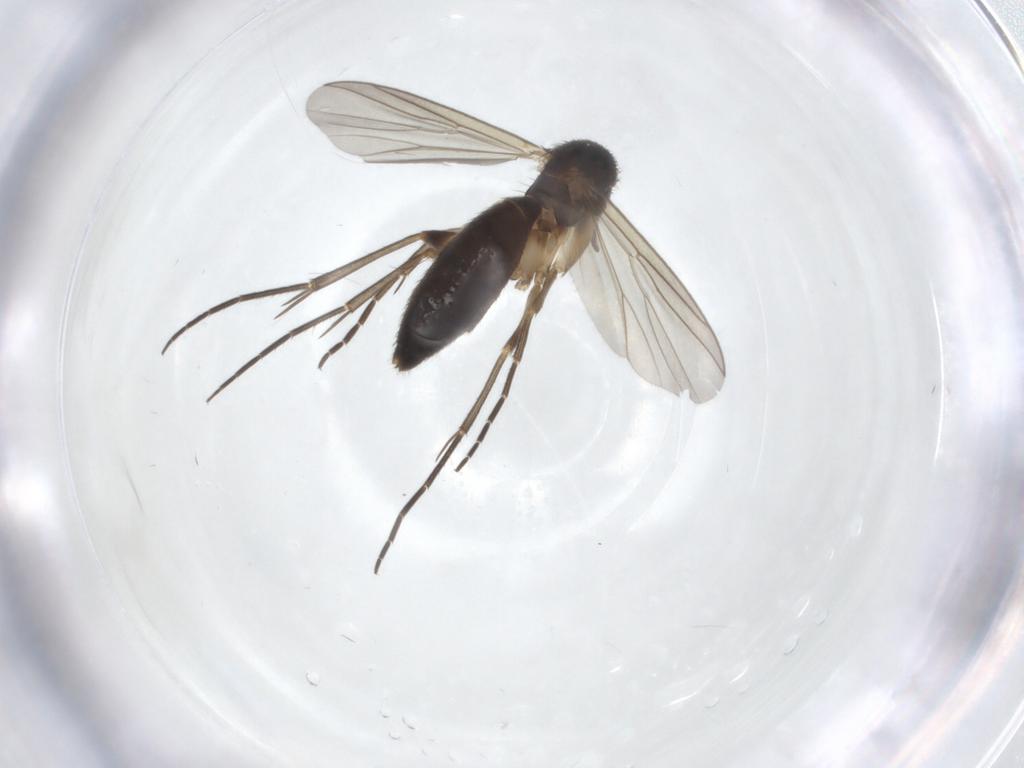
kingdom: Animalia
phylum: Arthropoda
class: Insecta
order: Diptera
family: Mycetophilidae
